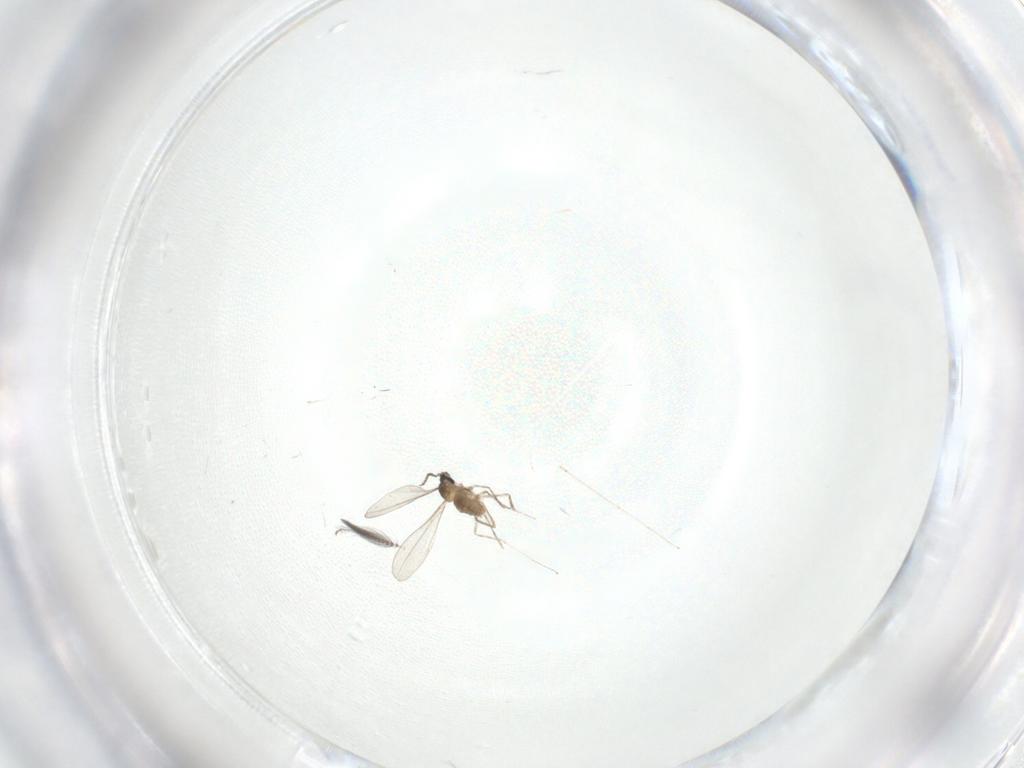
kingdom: Animalia
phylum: Arthropoda
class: Insecta
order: Diptera
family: Cecidomyiidae
